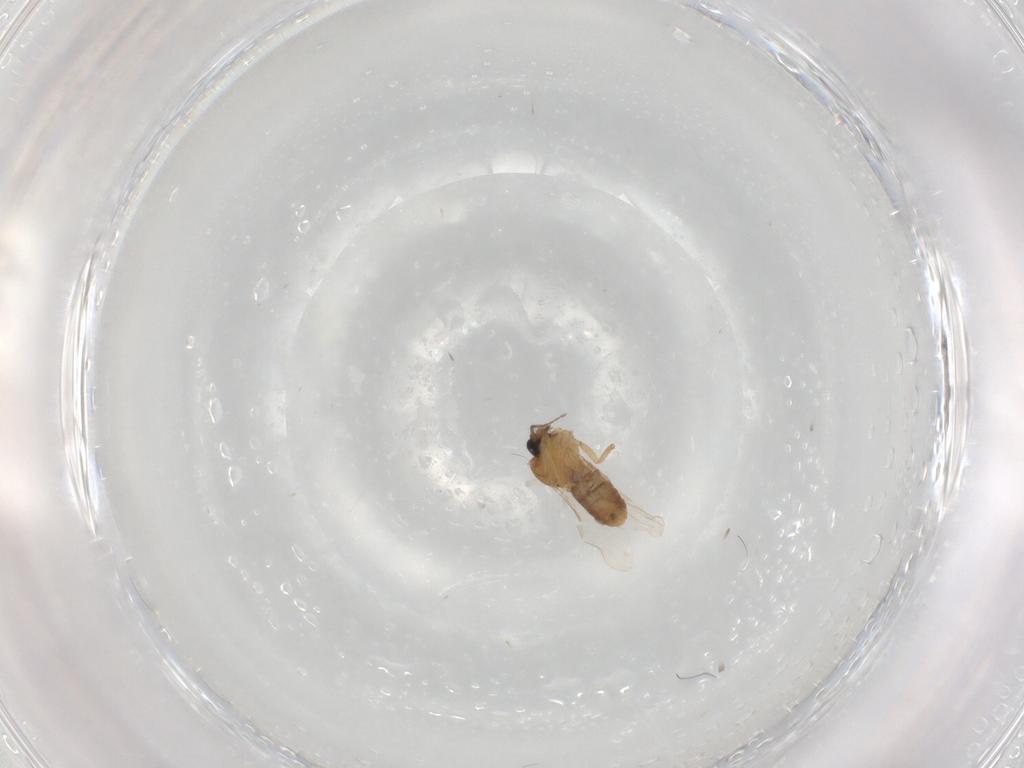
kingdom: Animalia
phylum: Arthropoda
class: Insecta
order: Diptera
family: Ceratopogonidae
